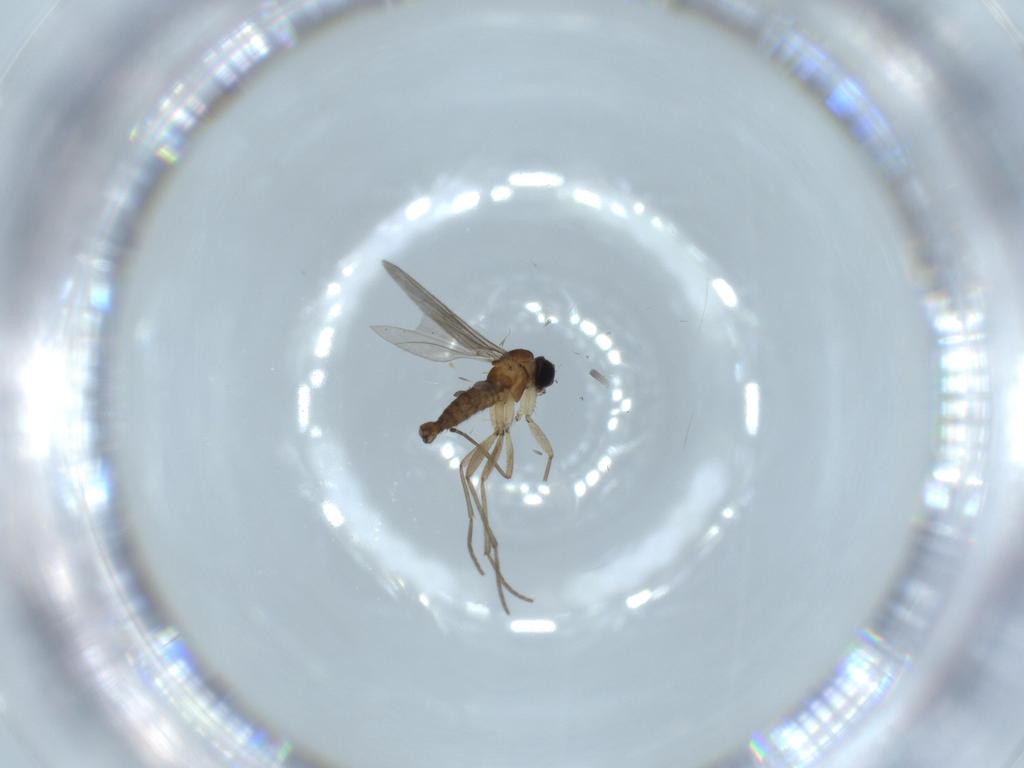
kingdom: Animalia
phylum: Arthropoda
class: Insecta
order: Diptera
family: Sciaridae
